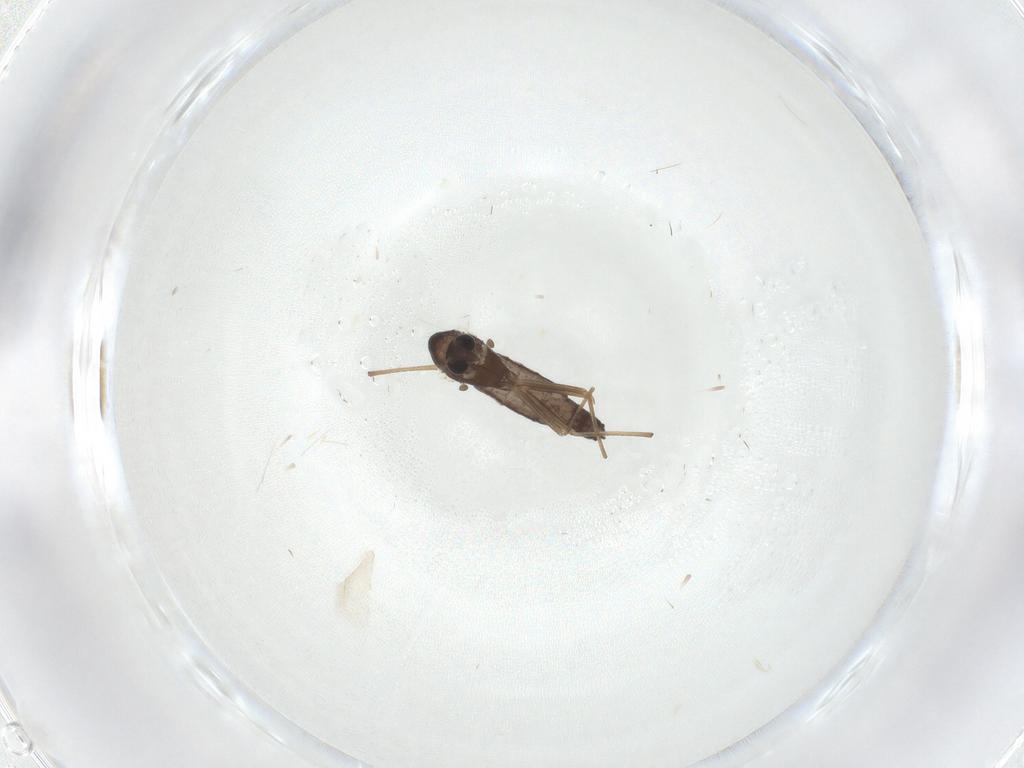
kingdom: Animalia
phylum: Arthropoda
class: Insecta
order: Diptera
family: Chironomidae
